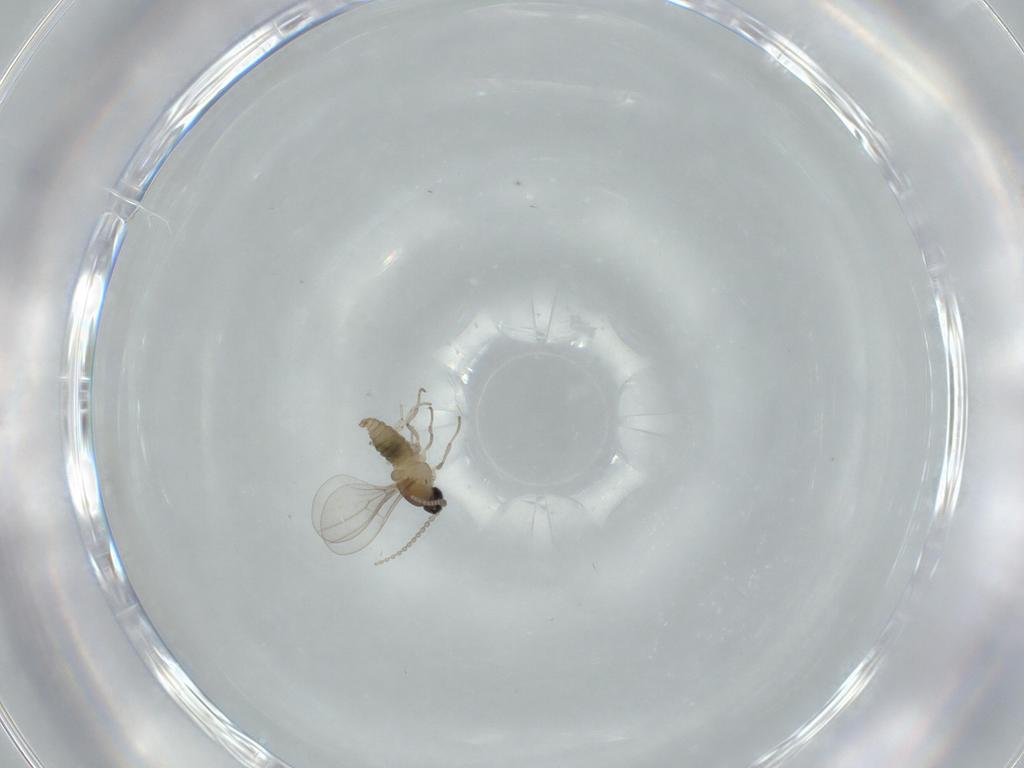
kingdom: Animalia
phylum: Arthropoda
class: Insecta
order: Diptera
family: Cecidomyiidae
